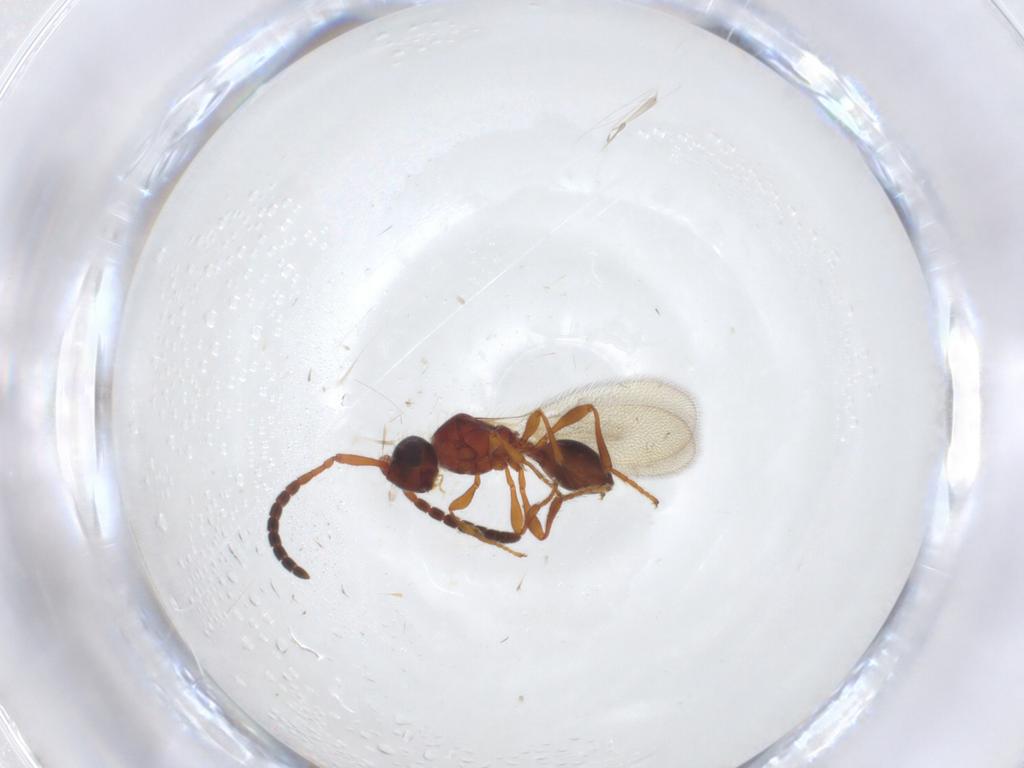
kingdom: Animalia
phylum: Arthropoda
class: Insecta
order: Hymenoptera
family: Diapriidae
